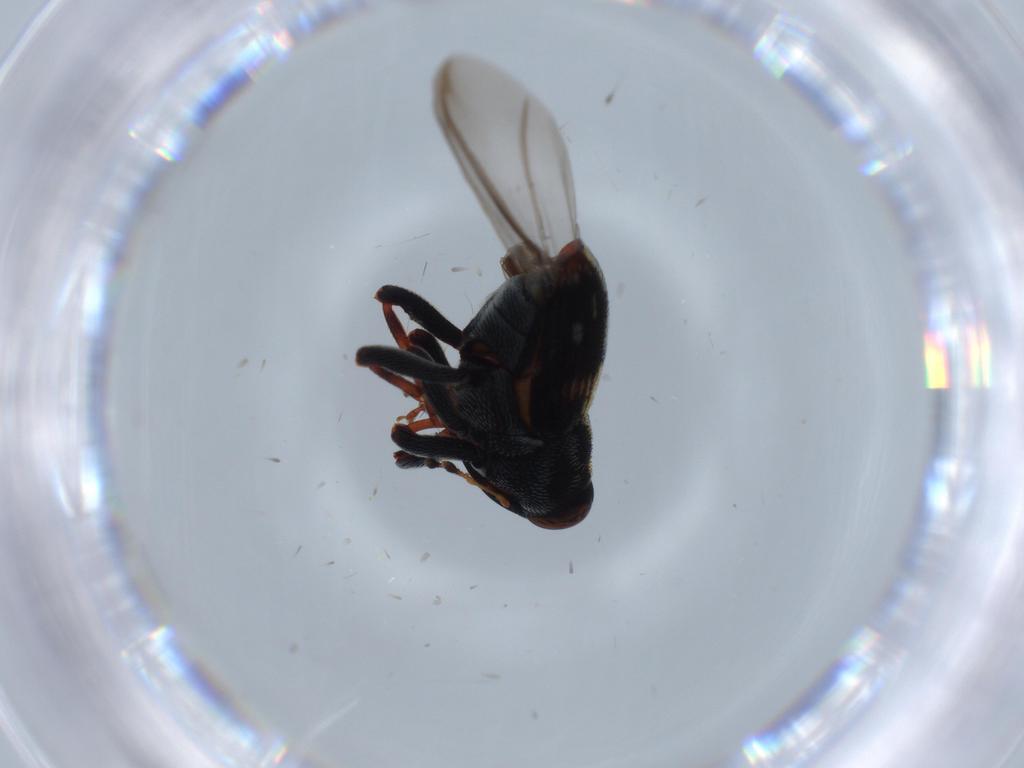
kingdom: Animalia
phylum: Arthropoda
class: Insecta
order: Coleoptera
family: Curculionidae
